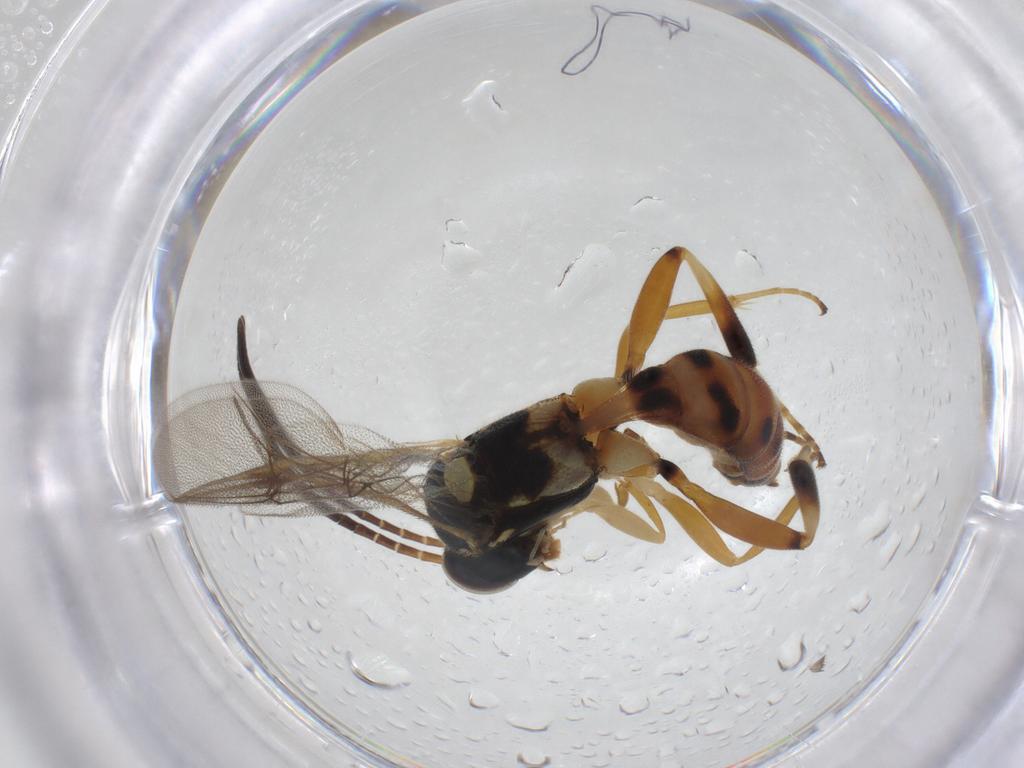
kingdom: Animalia
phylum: Arthropoda
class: Insecta
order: Hymenoptera
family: Ichneumonidae
